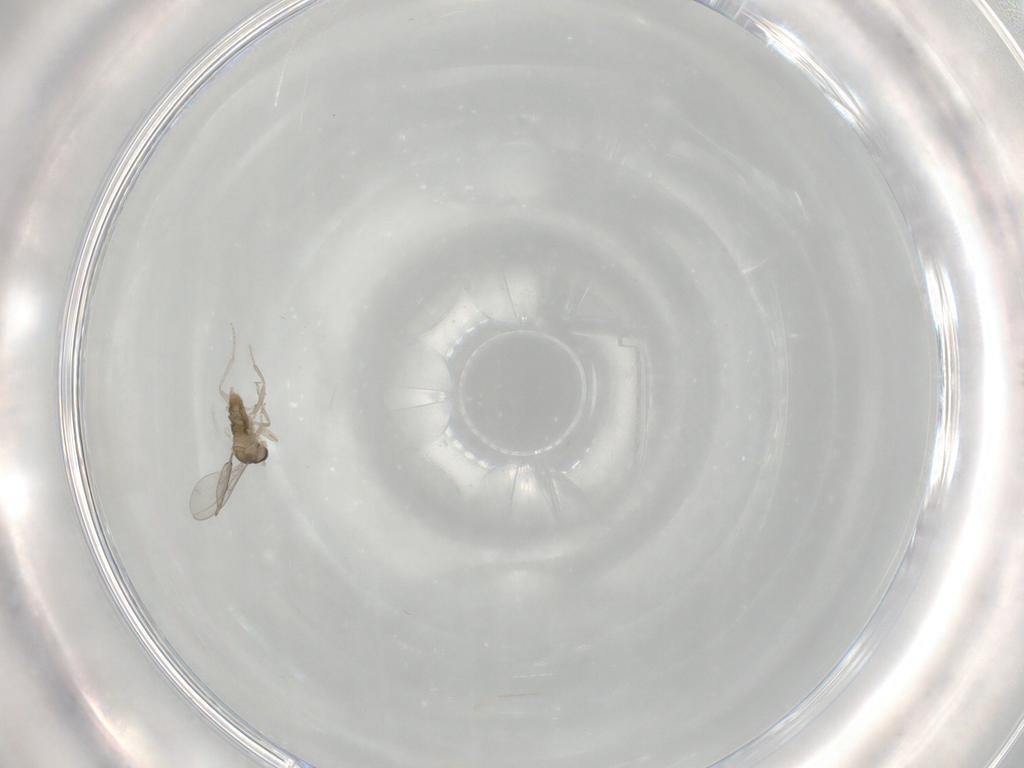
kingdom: Animalia
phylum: Arthropoda
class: Insecta
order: Diptera
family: Cecidomyiidae
